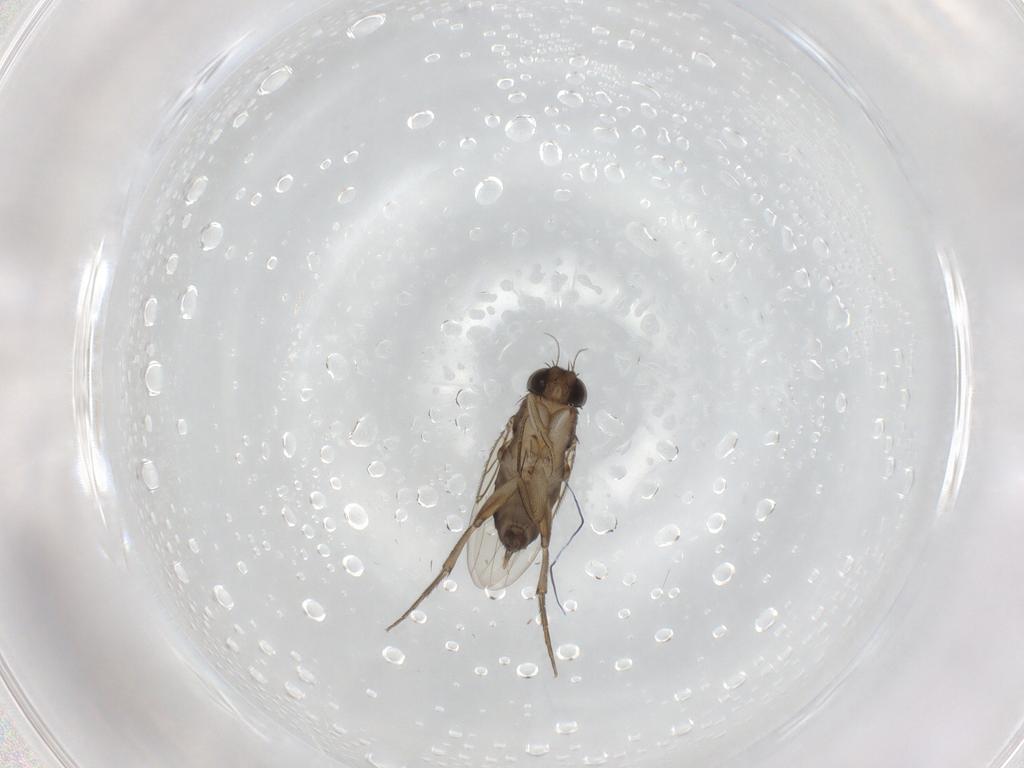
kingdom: Animalia
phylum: Arthropoda
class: Insecta
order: Diptera
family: Phoridae
